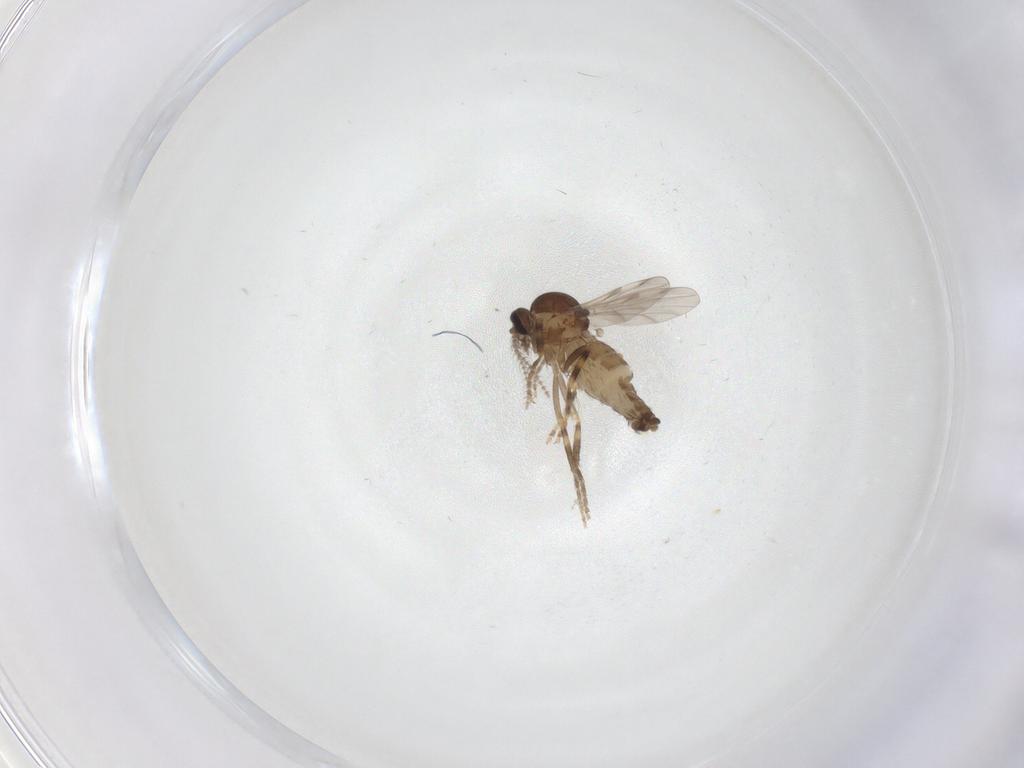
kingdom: Animalia
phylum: Arthropoda
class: Insecta
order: Diptera
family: Ceratopogonidae
